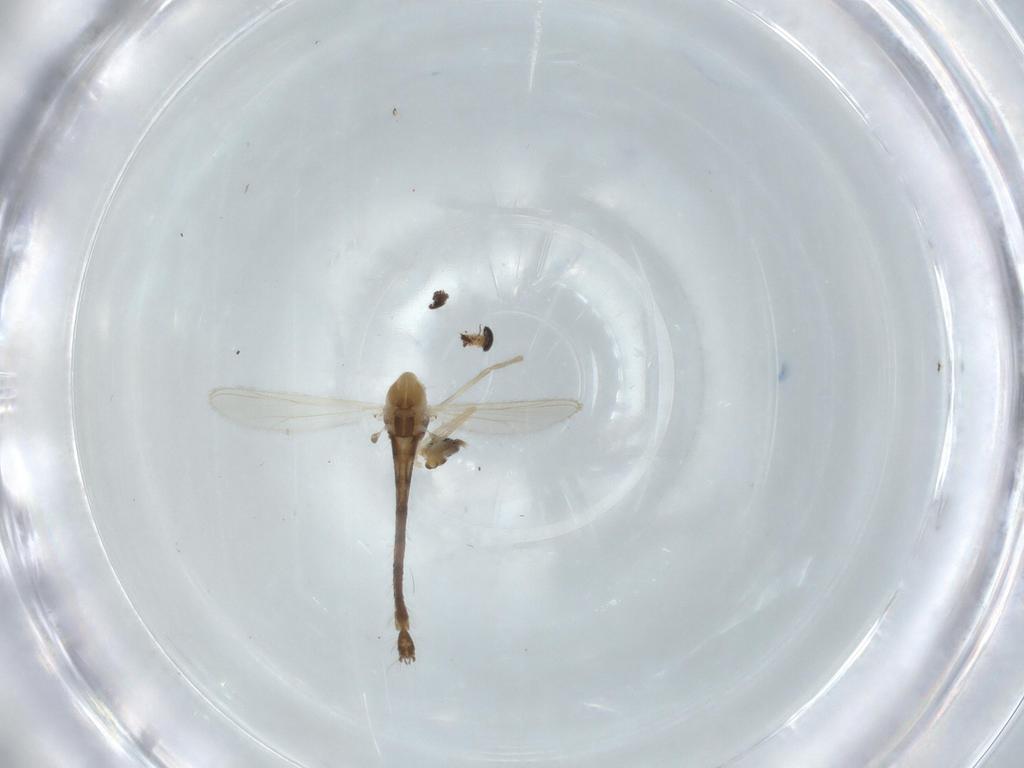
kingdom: Animalia
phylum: Arthropoda
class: Insecta
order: Diptera
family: Chironomidae
